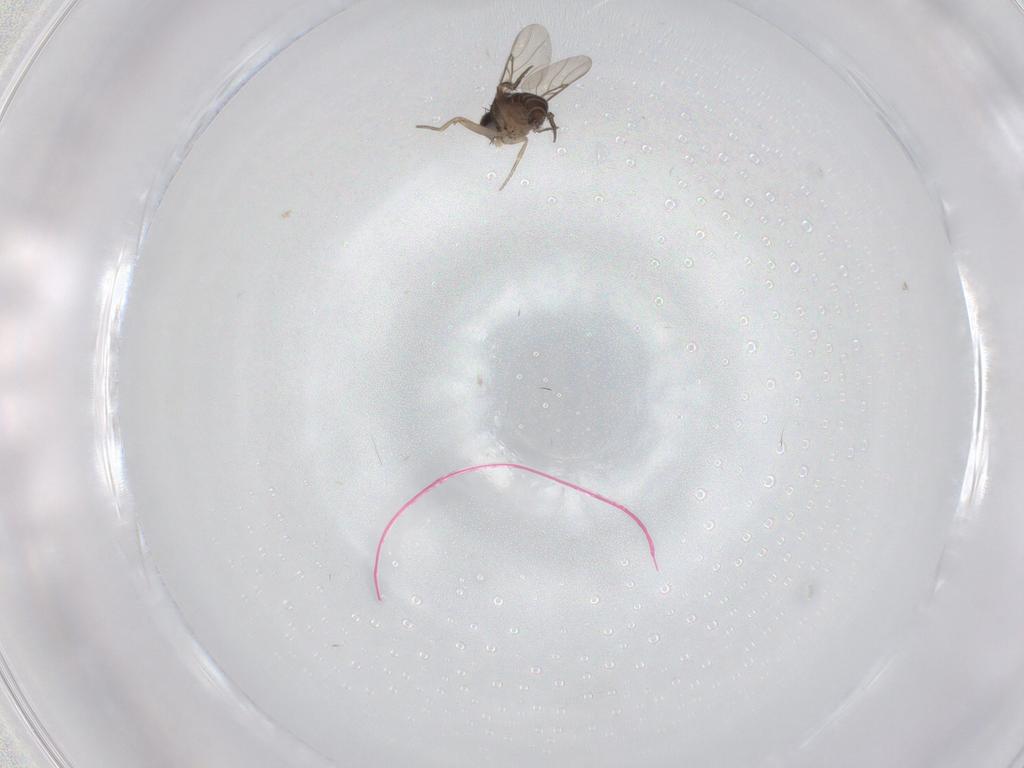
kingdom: Animalia
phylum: Arthropoda
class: Insecta
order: Diptera
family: Phoridae
